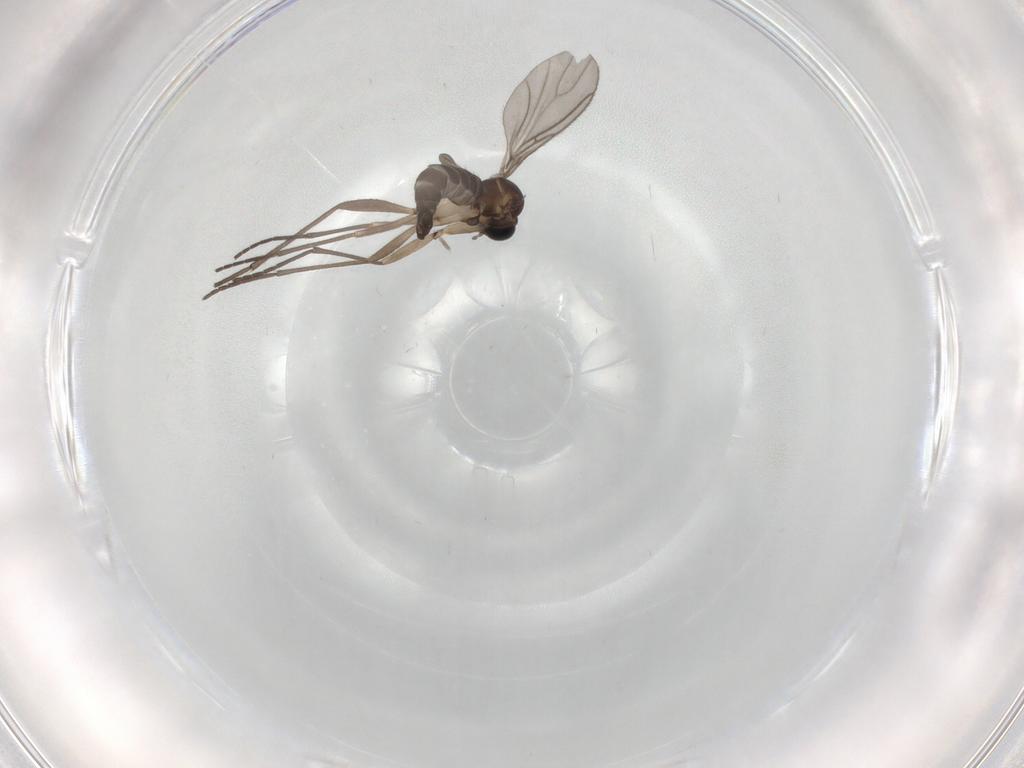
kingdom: Animalia
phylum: Arthropoda
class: Insecta
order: Diptera
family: Sciaridae
